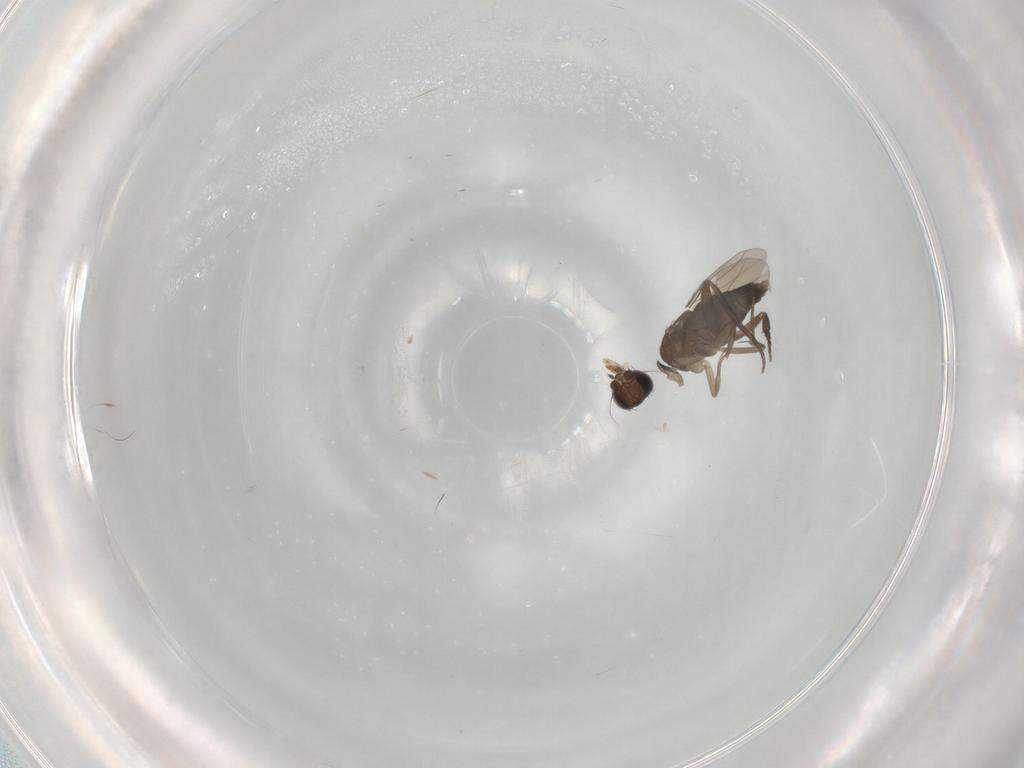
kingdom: Animalia
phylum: Arthropoda
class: Insecta
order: Diptera
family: Phoridae
